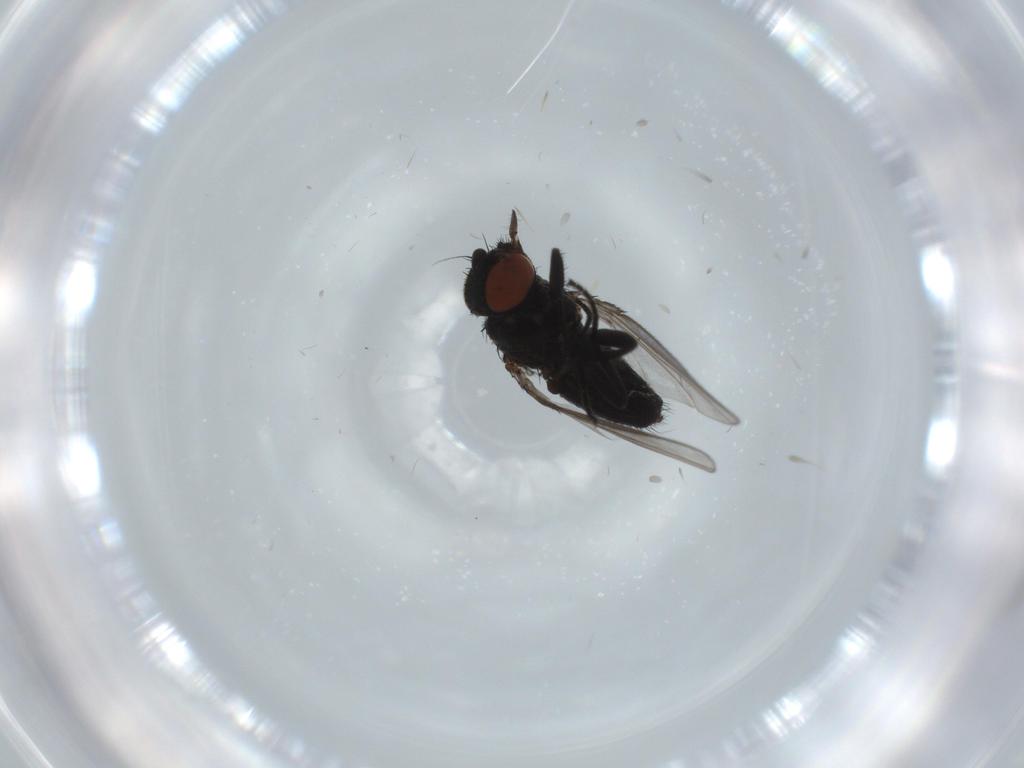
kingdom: Animalia
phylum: Arthropoda
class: Insecta
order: Diptera
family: Milichiidae
